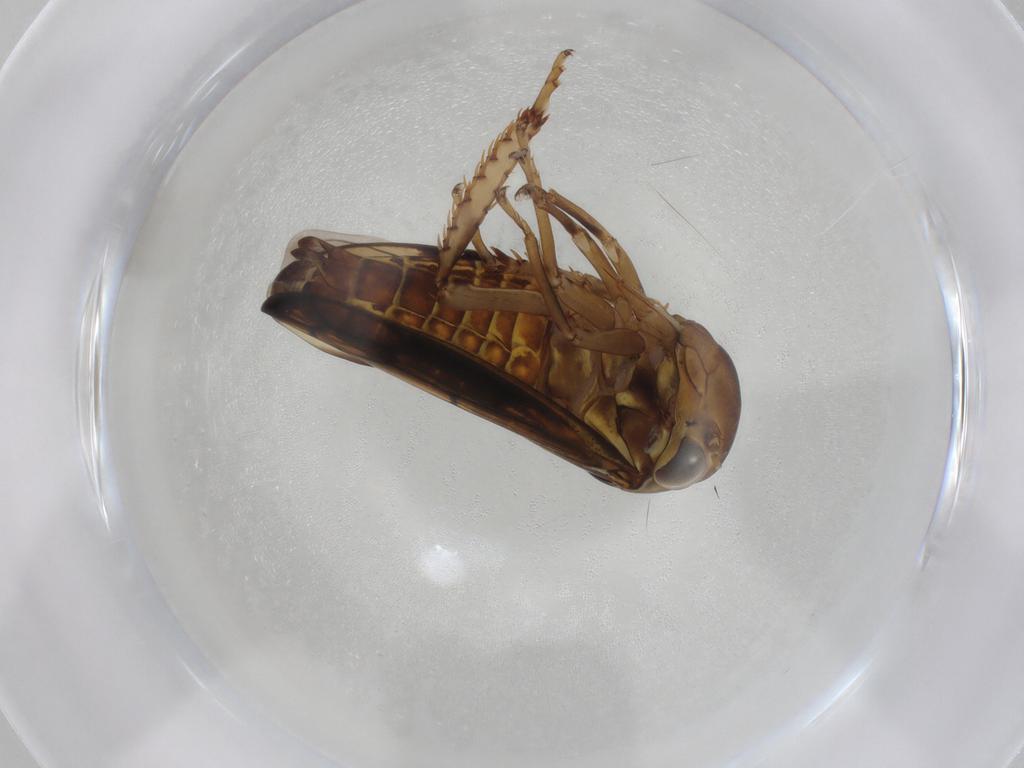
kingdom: Animalia
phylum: Arthropoda
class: Insecta
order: Hemiptera
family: Cicadellidae
